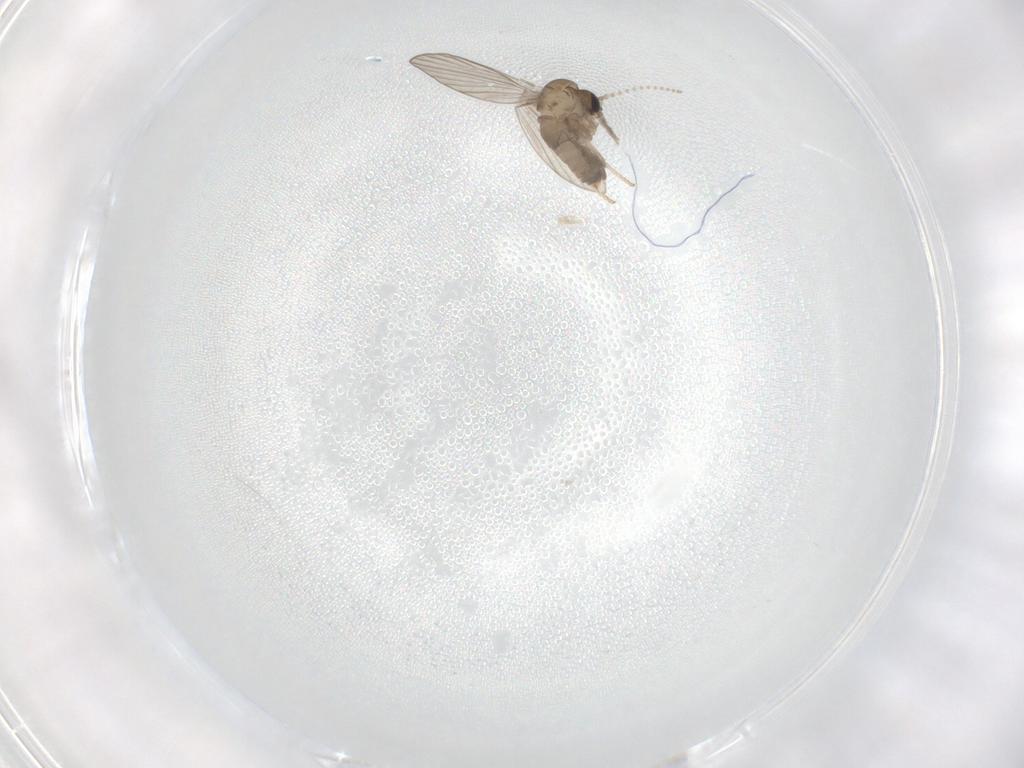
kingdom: Animalia
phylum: Arthropoda
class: Insecta
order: Diptera
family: Psychodidae
